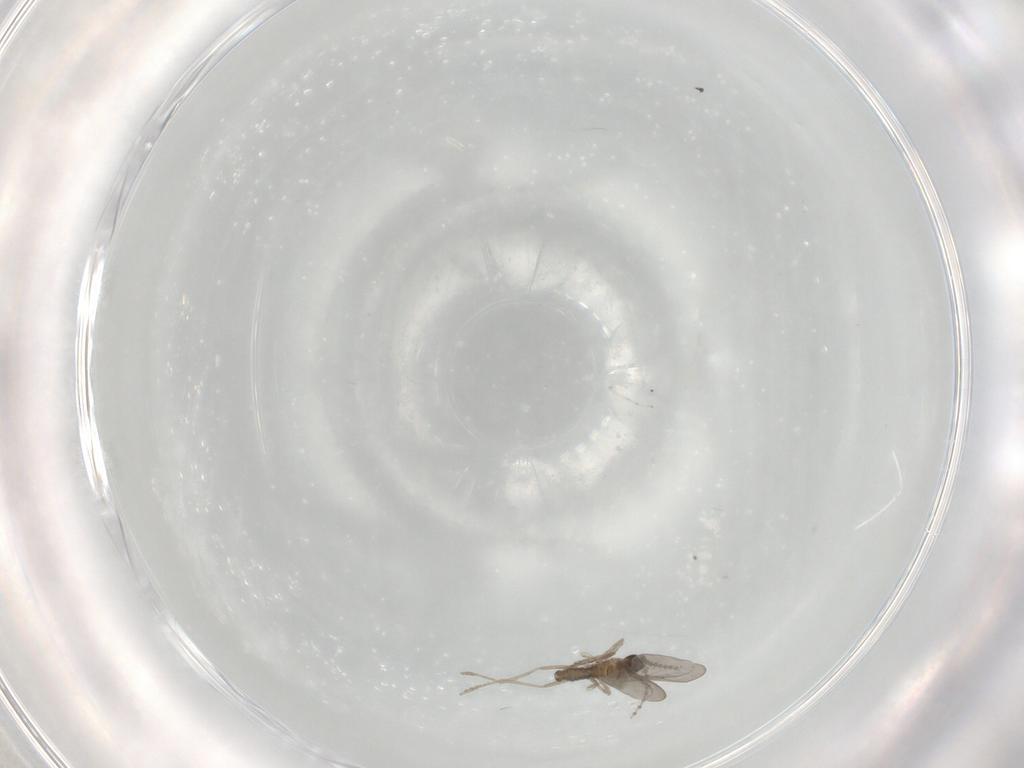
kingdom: Animalia
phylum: Arthropoda
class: Insecta
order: Diptera
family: Cecidomyiidae
